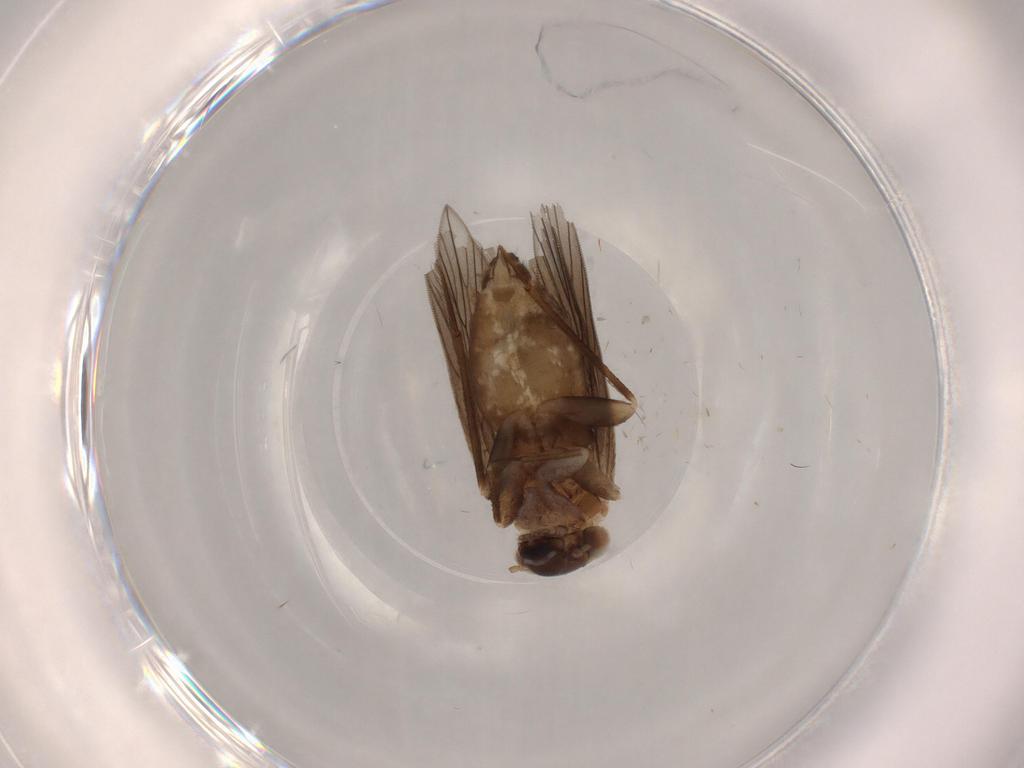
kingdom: Animalia
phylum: Arthropoda
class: Insecta
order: Psocodea
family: Lepidopsocidae
